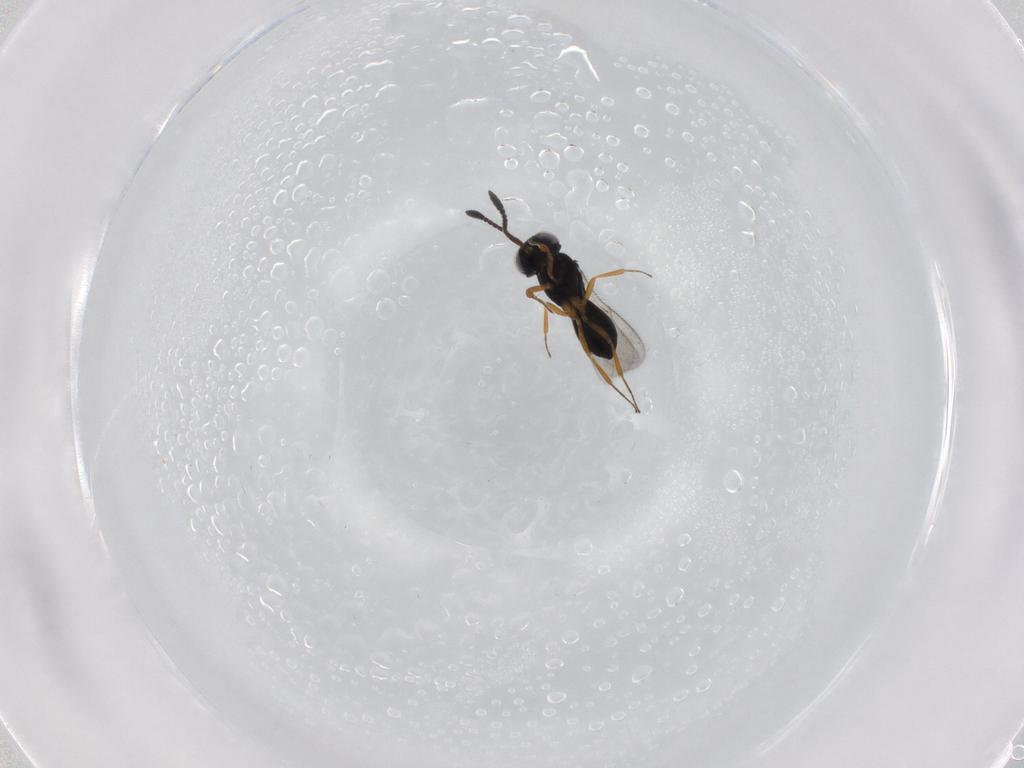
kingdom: Animalia
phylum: Arthropoda
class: Insecta
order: Hymenoptera
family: Scelionidae
